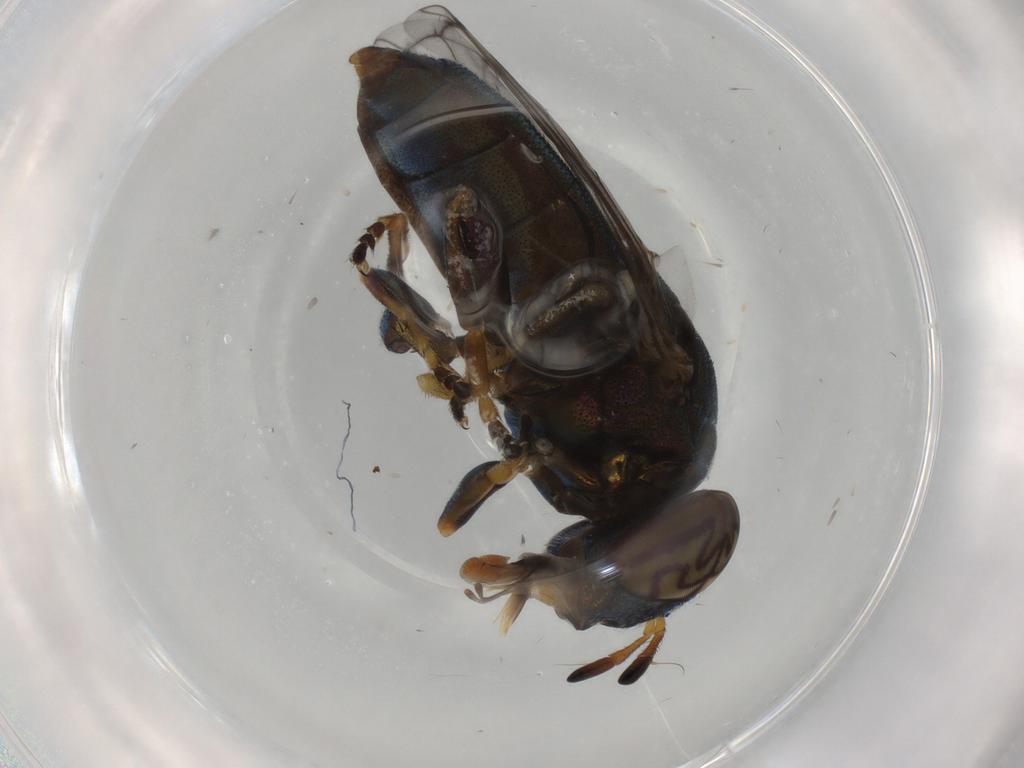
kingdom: Animalia
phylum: Arthropoda
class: Insecta
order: Diptera
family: Syrphidae
